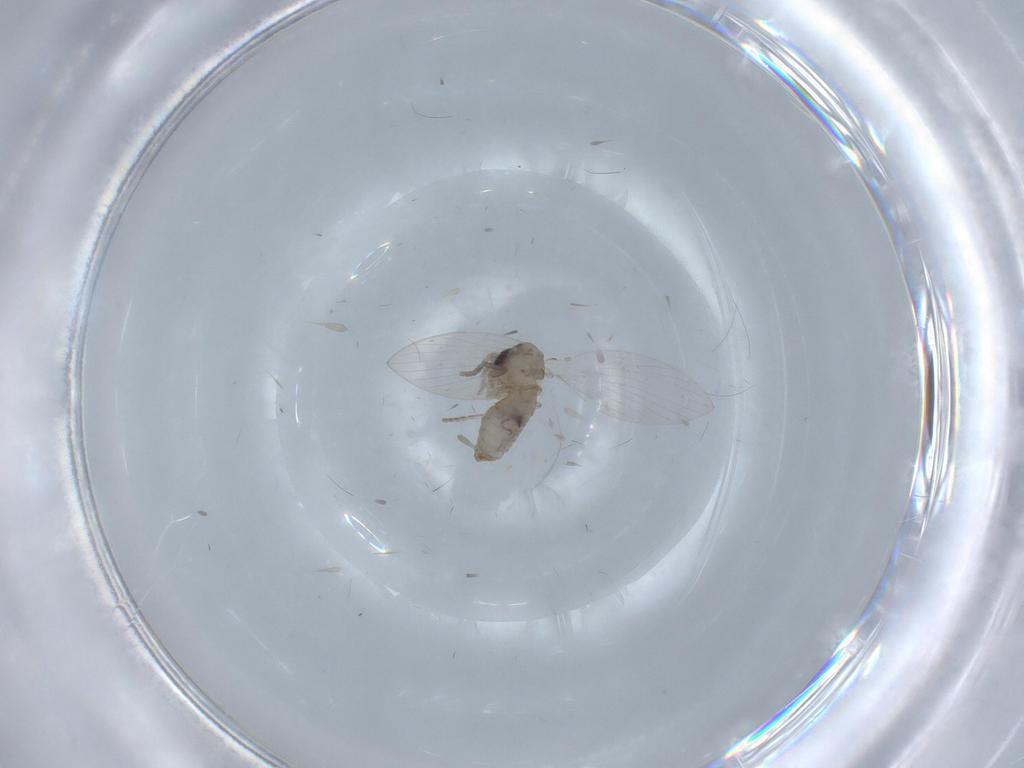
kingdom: Animalia
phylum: Arthropoda
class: Insecta
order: Diptera
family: Psychodidae
